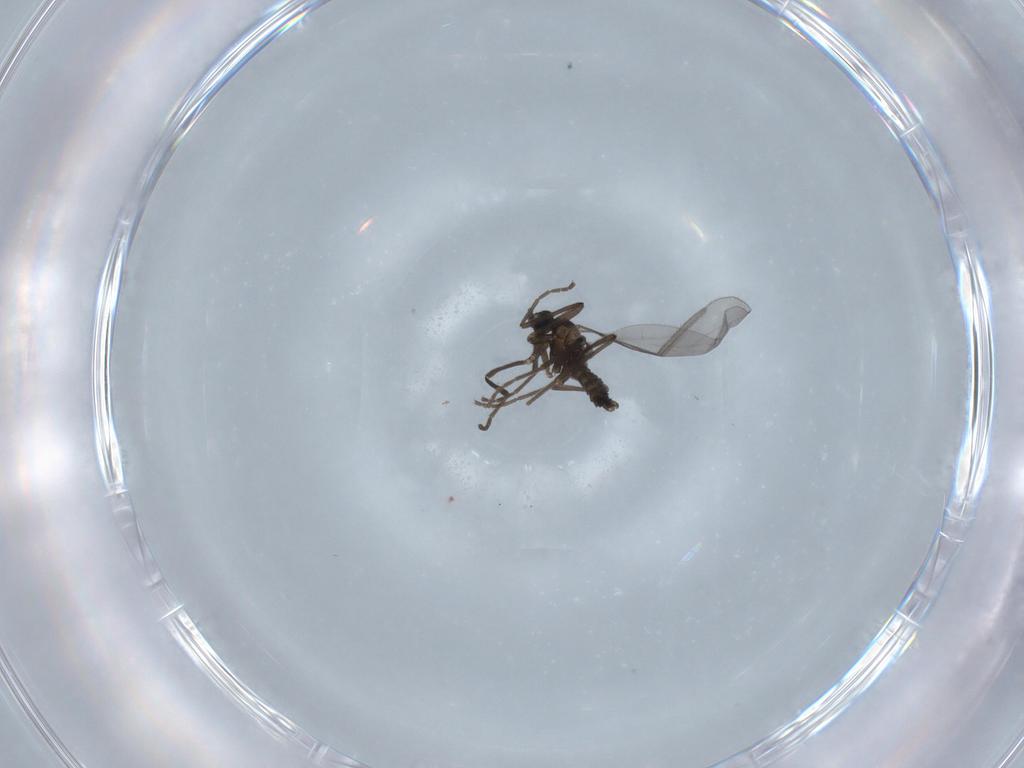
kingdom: Animalia
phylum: Arthropoda
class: Insecta
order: Diptera
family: Cecidomyiidae
